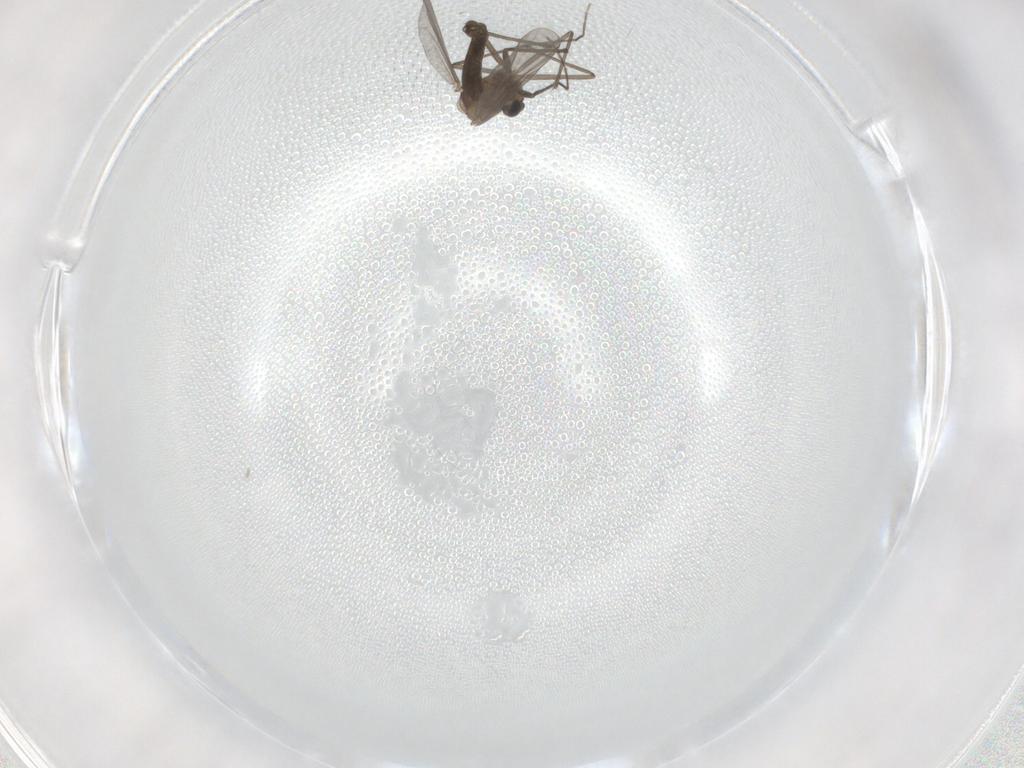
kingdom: Animalia
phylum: Arthropoda
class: Insecta
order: Diptera
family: Chironomidae
